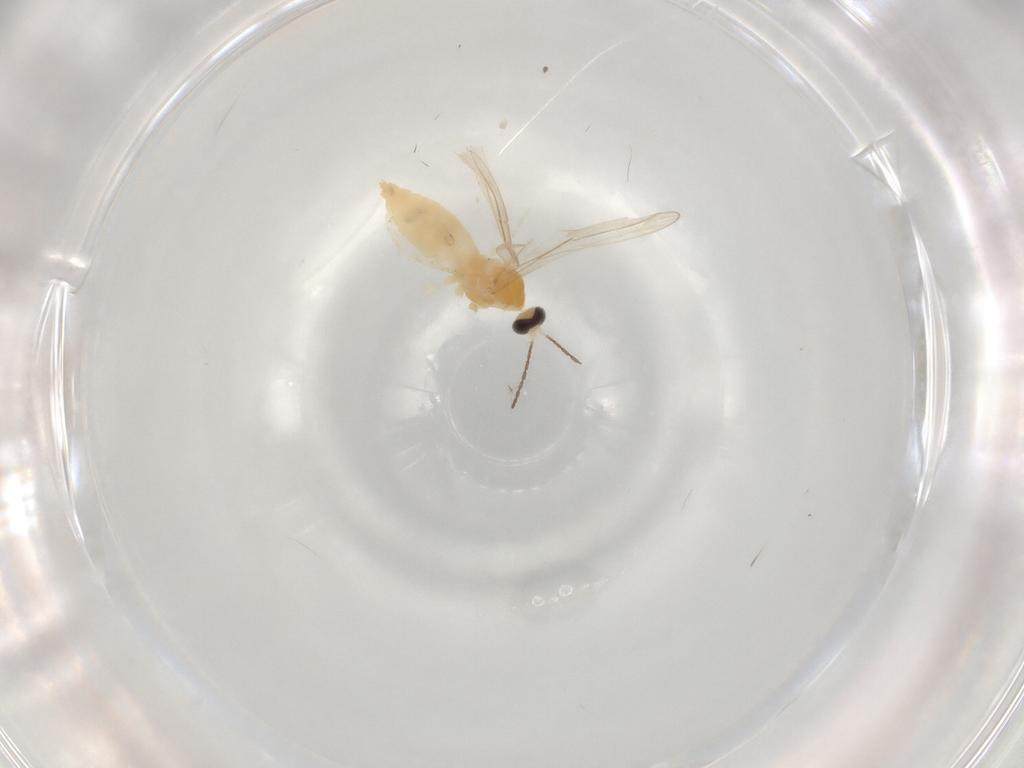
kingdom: Animalia
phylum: Arthropoda
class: Insecta
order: Diptera
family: Cecidomyiidae
